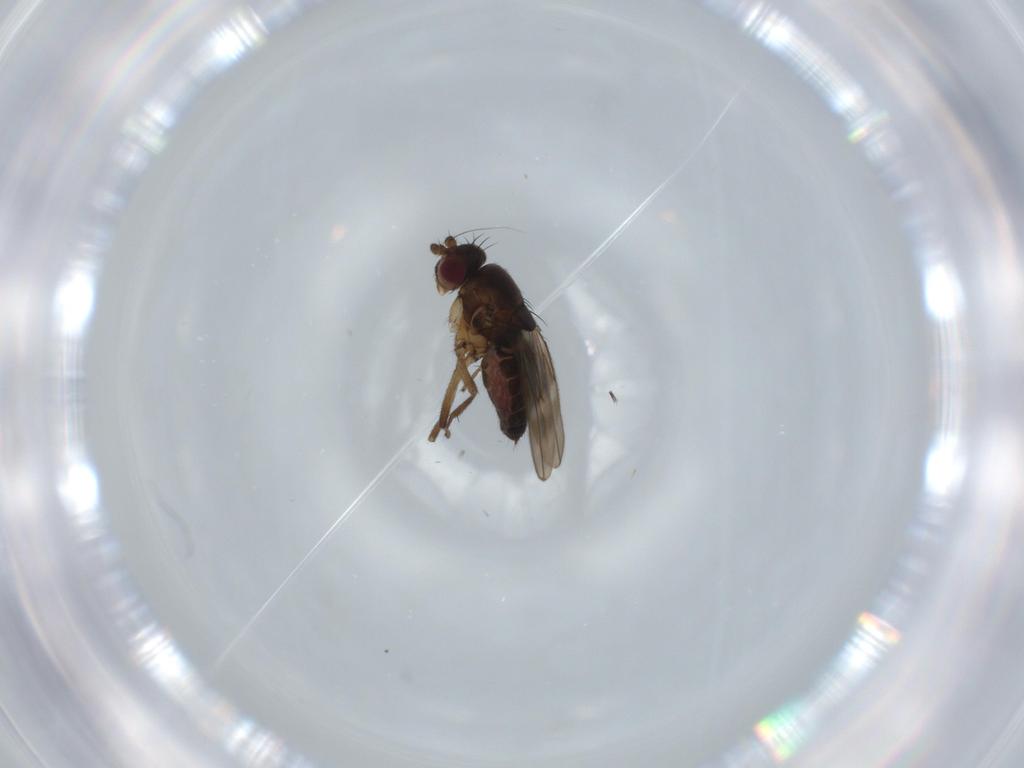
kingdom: Animalia
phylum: Arthropoda
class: Insecta
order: Diptera
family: Sphaeroceridae
